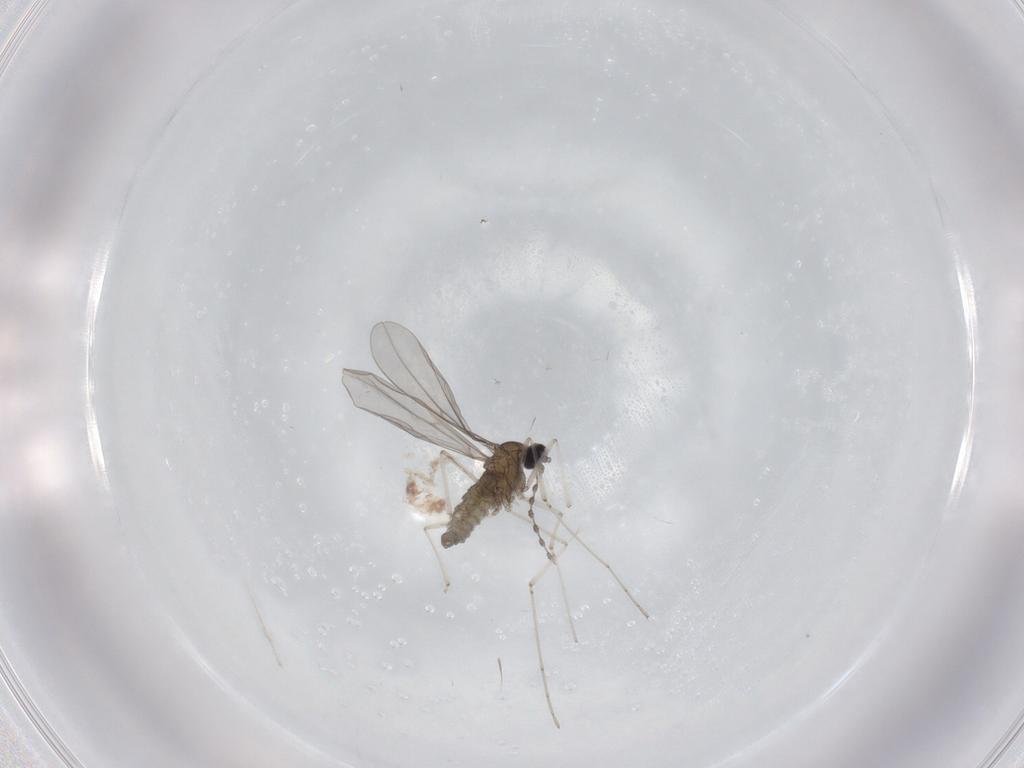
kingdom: Animalia
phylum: Arthropoda
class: Insecta
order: Diptera
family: Cecidomyiidae
